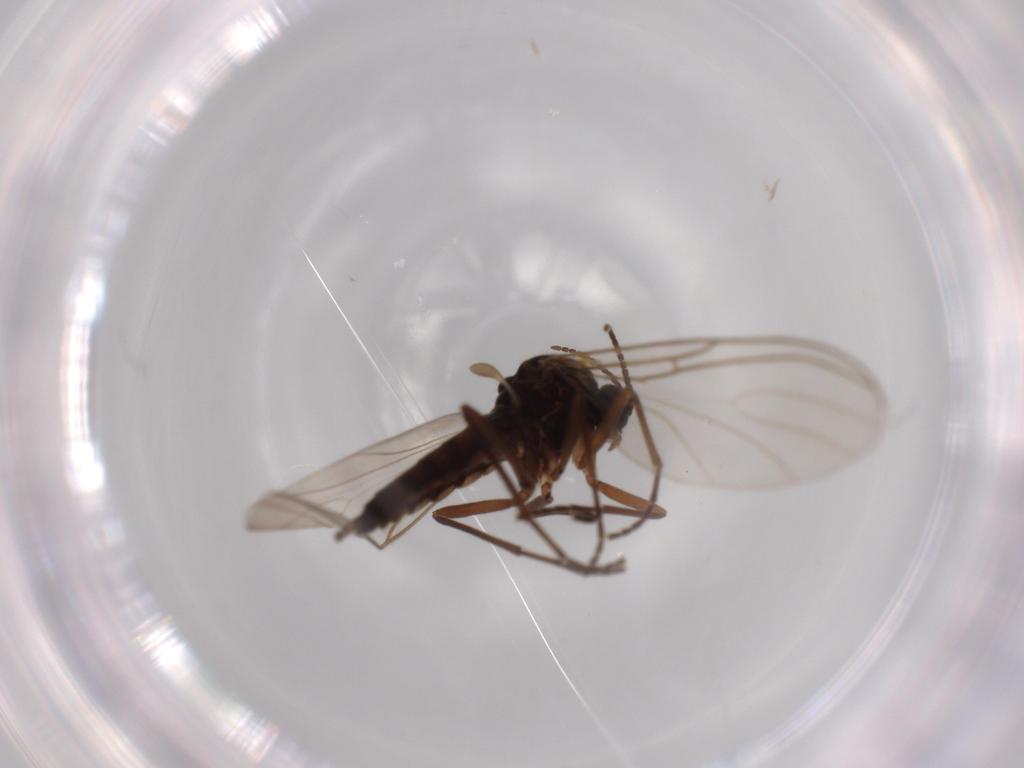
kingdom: Animalia
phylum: Arthropoda
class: Insecta
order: Diptera
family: Sciaridae
